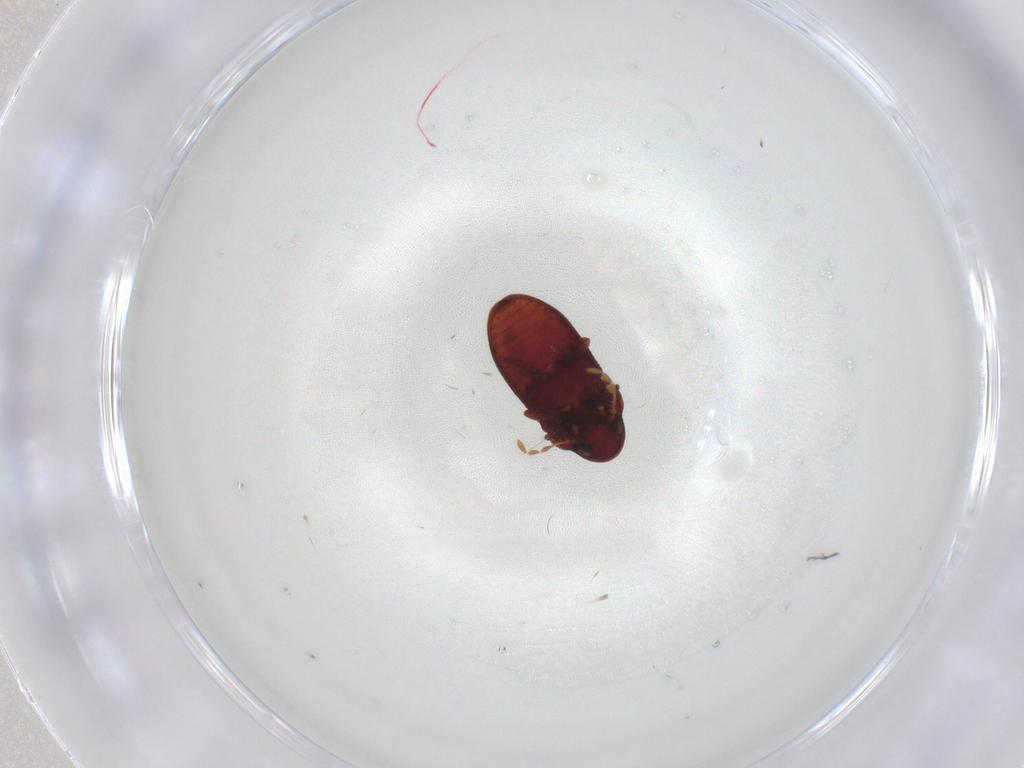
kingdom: Animalia
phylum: Arthropoda
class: Insecta
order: Coleoptera
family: Ptinidae
